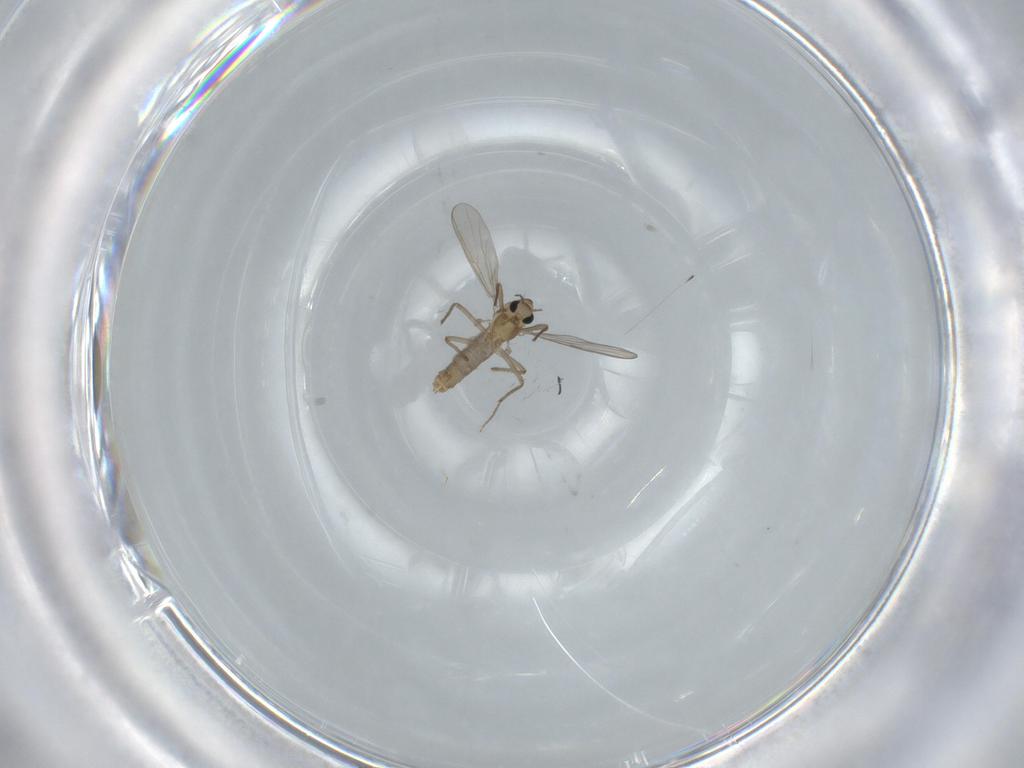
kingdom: Animalia
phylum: Arthropoda
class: Insecta
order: Diptera
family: Chironomidae
